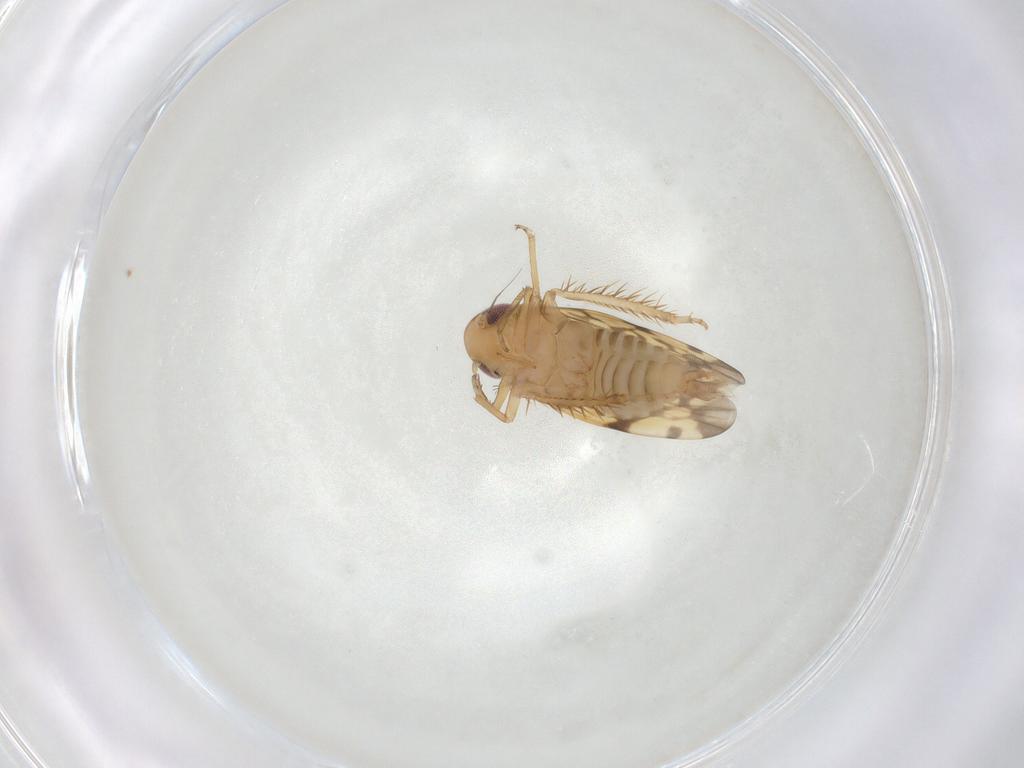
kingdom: Animalia
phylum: Arthropoda
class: Insecta
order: Hemiptera
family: Cicadellidae
